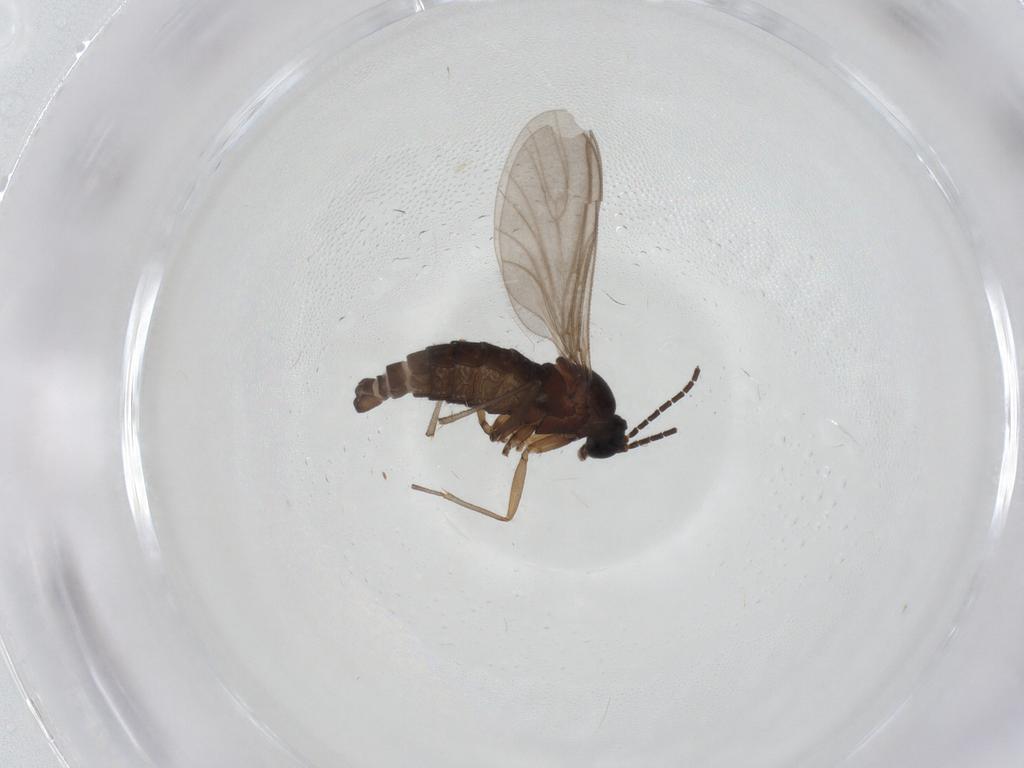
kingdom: Animalia
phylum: Arthropoda
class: Insecta
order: Diptera
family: Sciaridae
